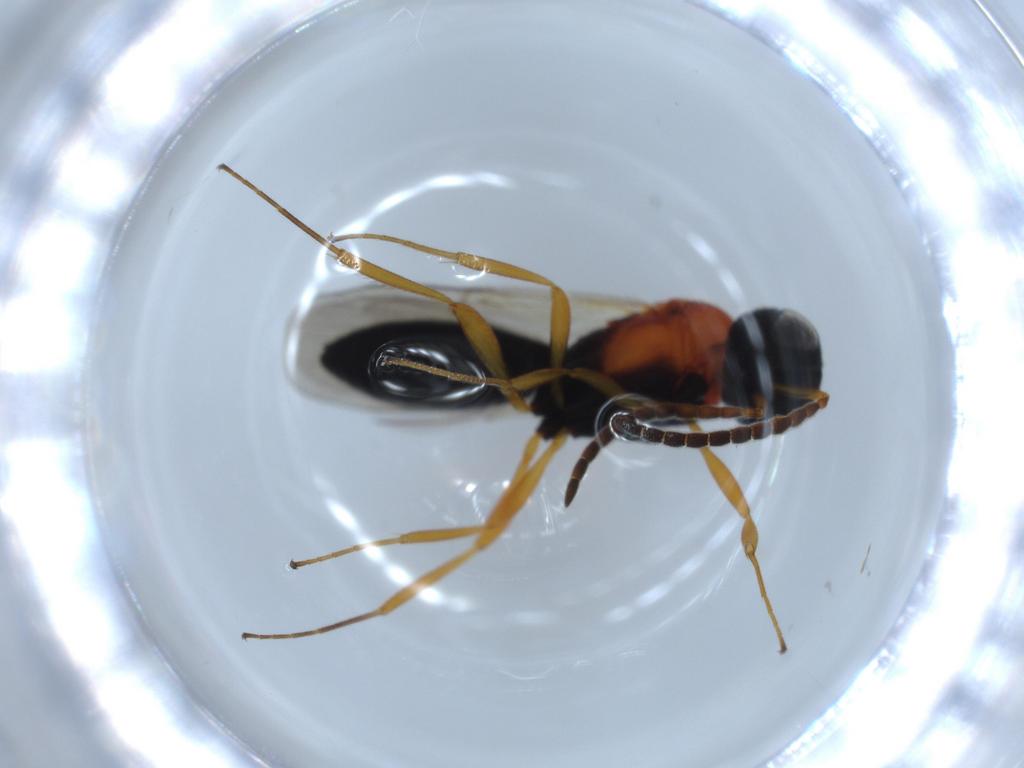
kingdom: Animalia
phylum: Arthropoda
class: Insecta
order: Hymenoptera
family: Scelionidae
